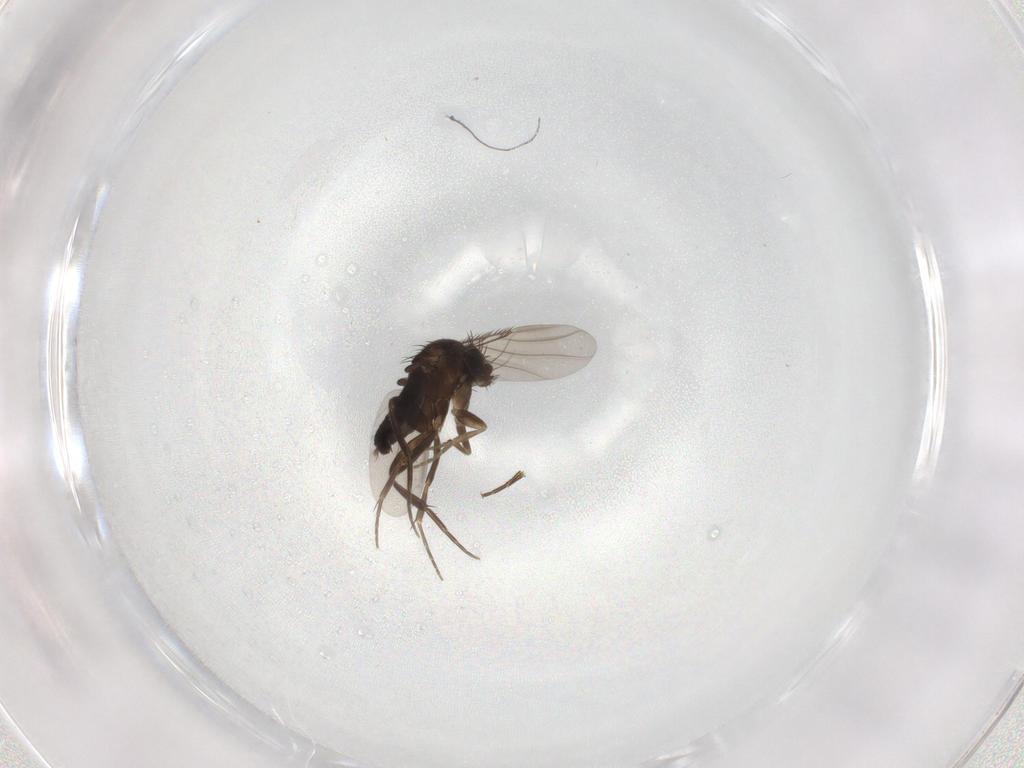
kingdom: Animalia
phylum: Arthropoda
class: Insecta
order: Diptera
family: Phoridae
